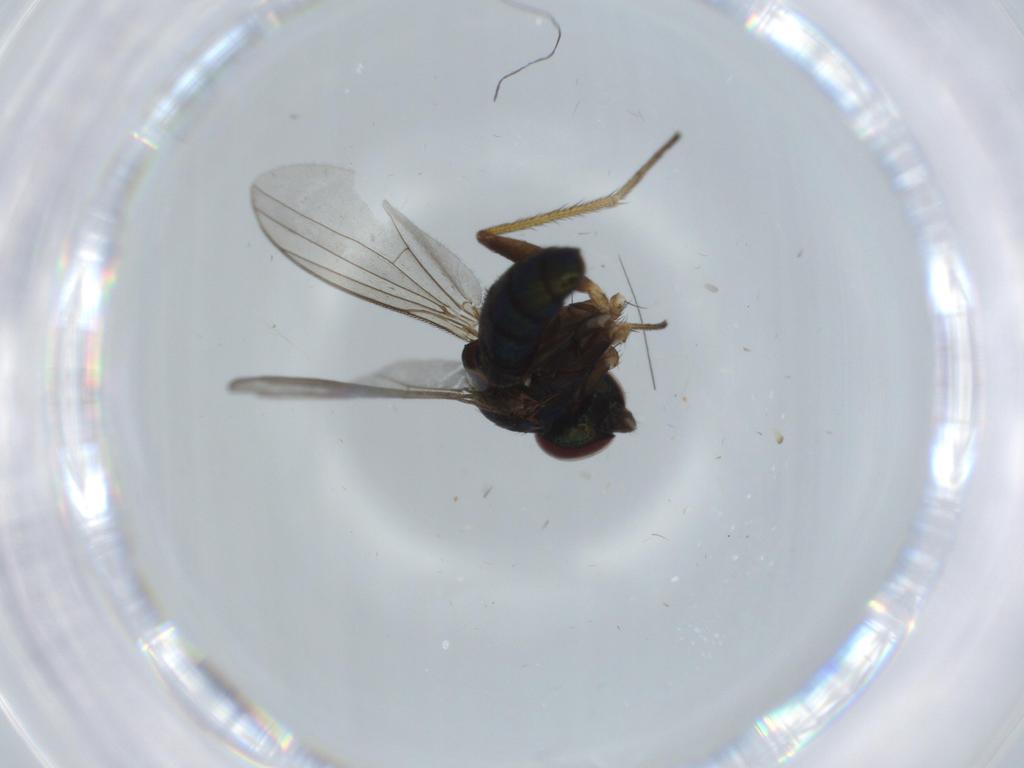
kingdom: Animalia
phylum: Arthropoda
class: Insecta
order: Diptera
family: Ceratopogonidae
